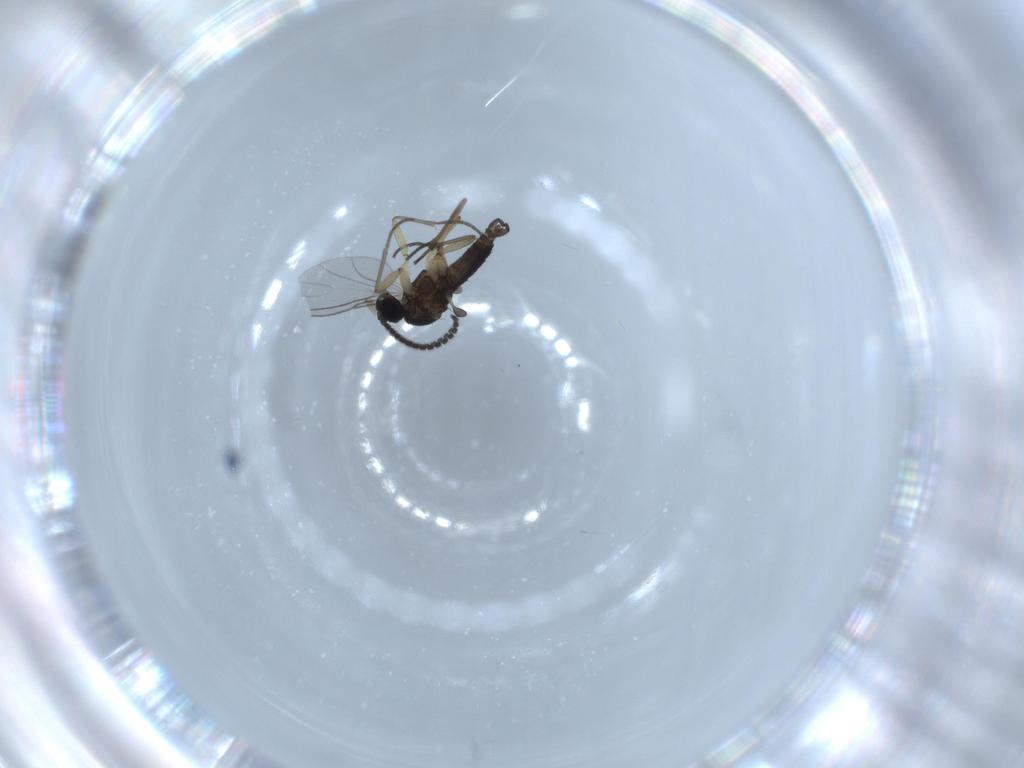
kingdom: Animalia
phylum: Arthropoda
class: Insecta
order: Diptera
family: Sciaridae
